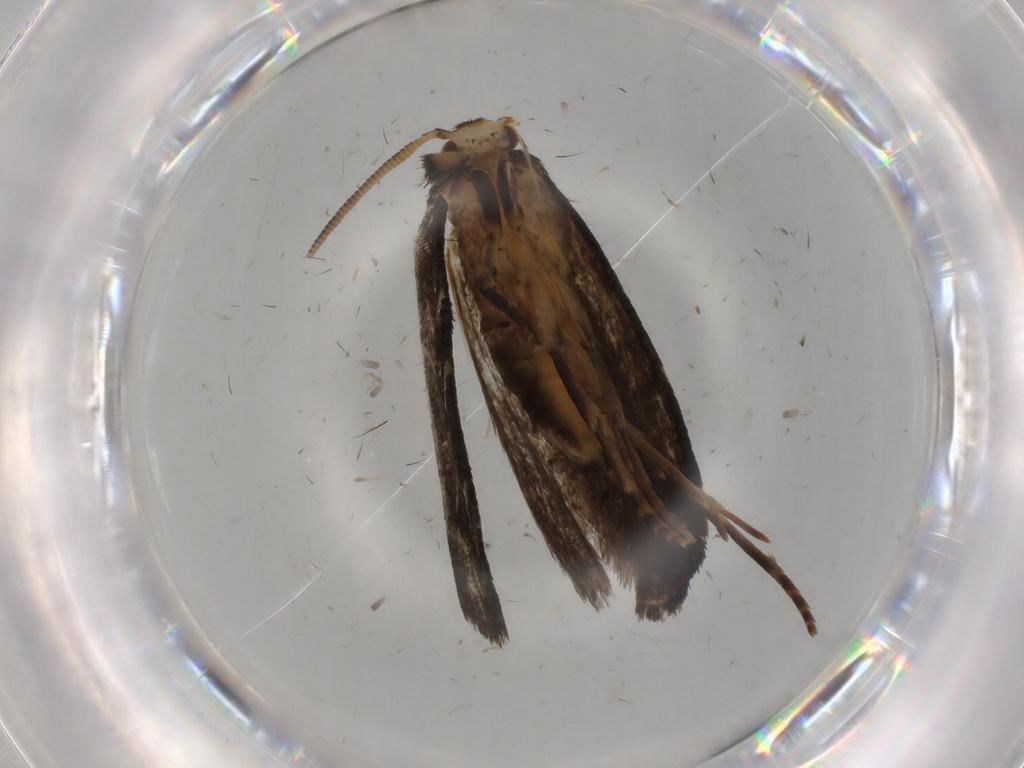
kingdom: Animalia
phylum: Arthropoda
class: Insecta
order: Lepidoptera
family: Dryadaulidae
